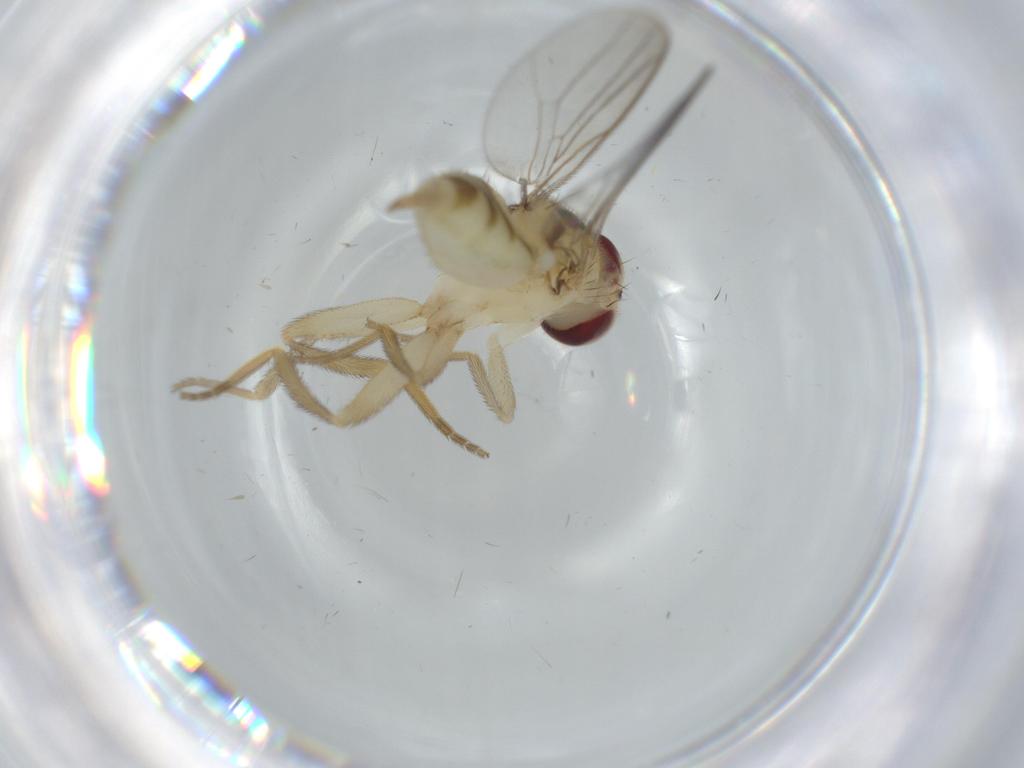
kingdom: Animalia
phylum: Arthropoda
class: Insecta
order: Diptera
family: Chloropidae
